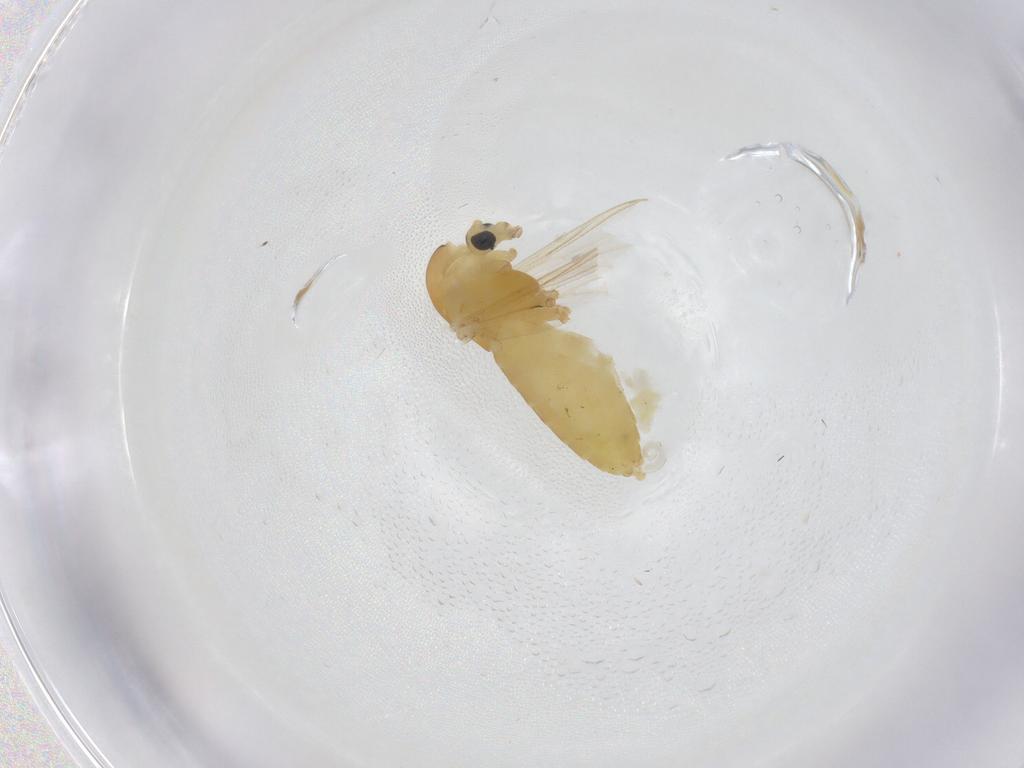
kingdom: Animalia
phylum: Arthropoda
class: Insecta
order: Diptera
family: Chironomidae
